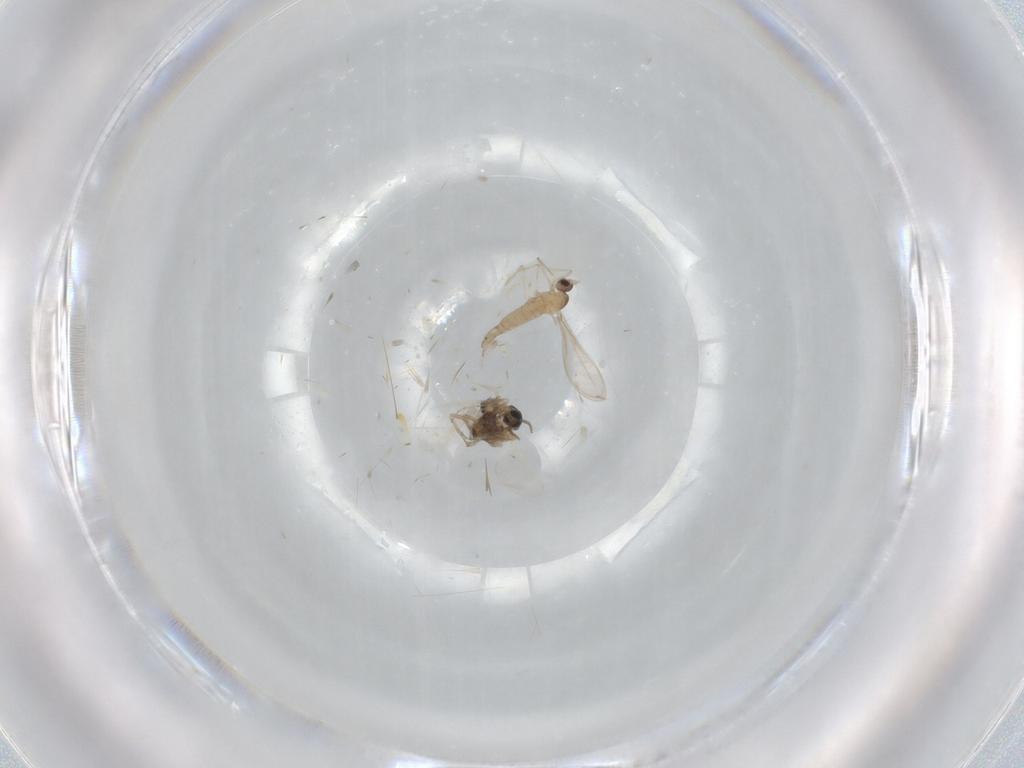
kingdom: Animalia
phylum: Arthropoda
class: Insecta
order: Diptera
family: Cecidomyiidae
